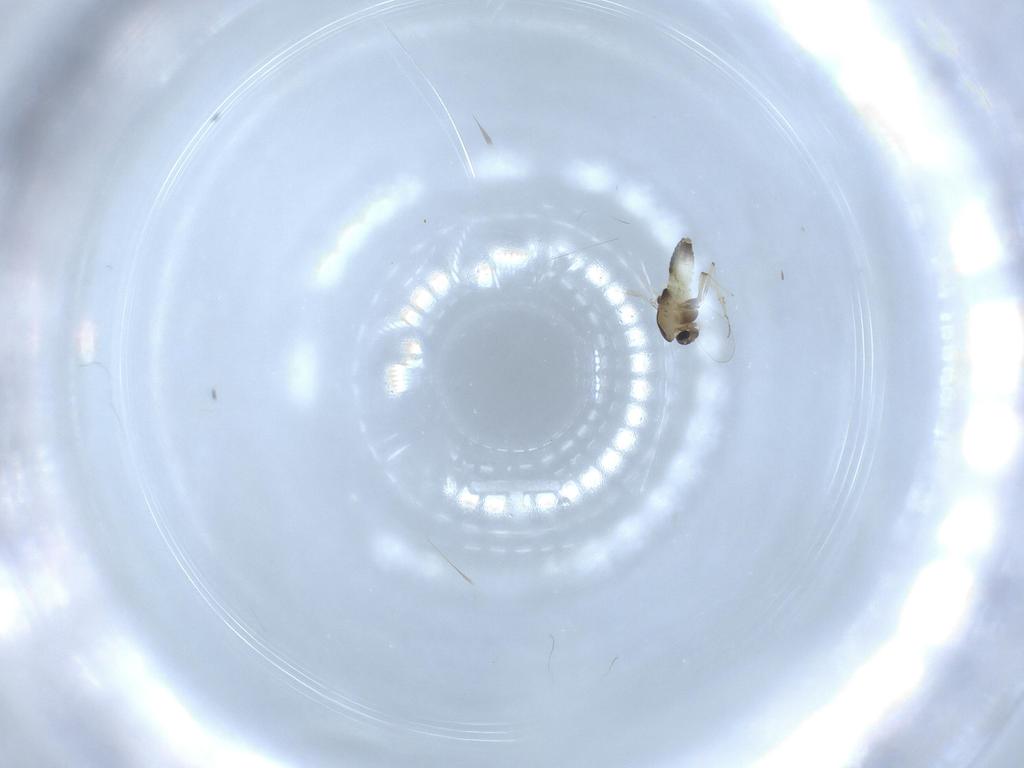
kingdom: Animalia
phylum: Arthropoda
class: Insecta
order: Diptera
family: Chironomidae
